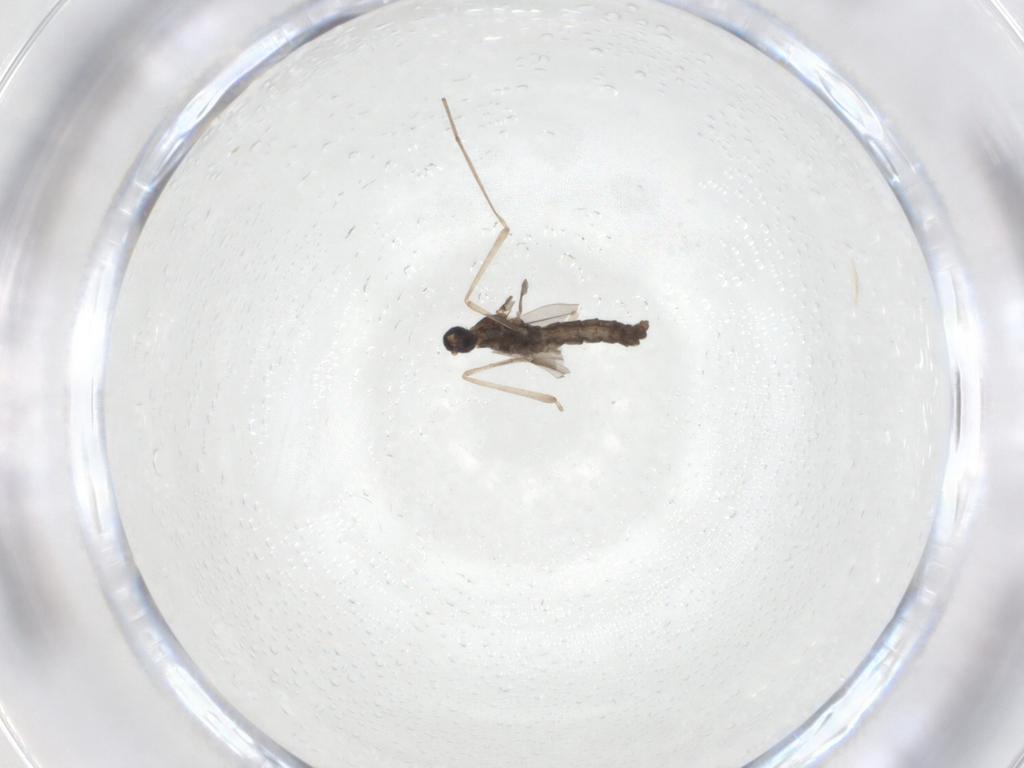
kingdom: Animalia
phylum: Arthropoda
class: Insecta
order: Diptera
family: Cecidomyiidae
